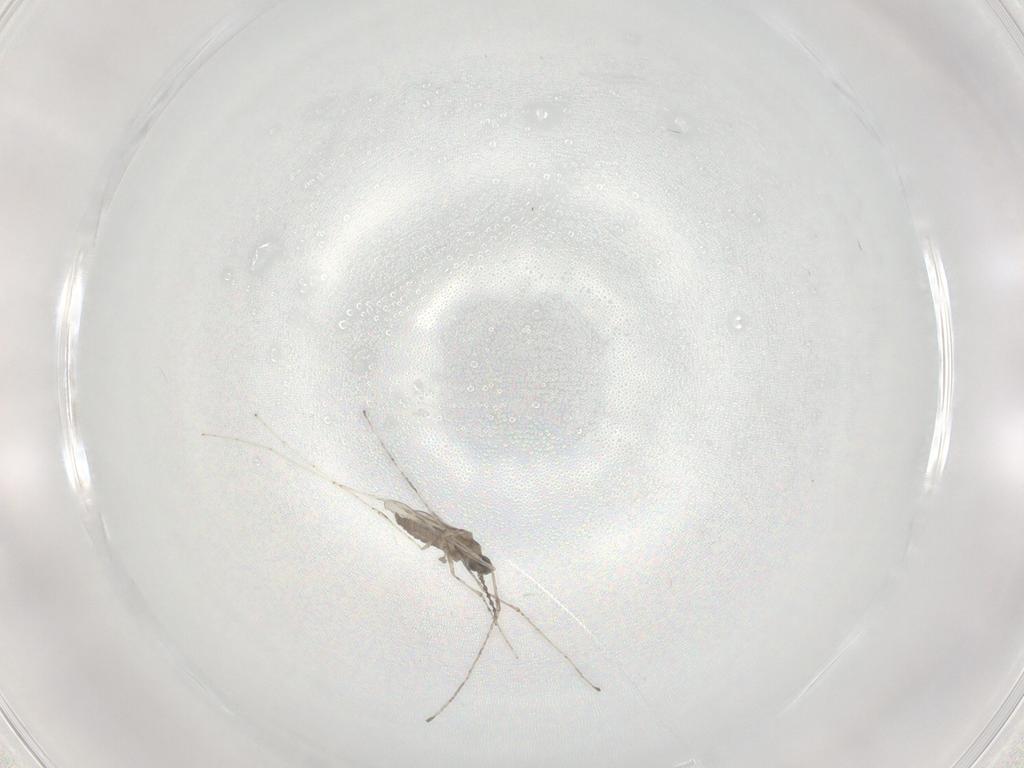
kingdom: Animalia
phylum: Arthropoda
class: Insecta
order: Diptera
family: Cecidomyiidae
